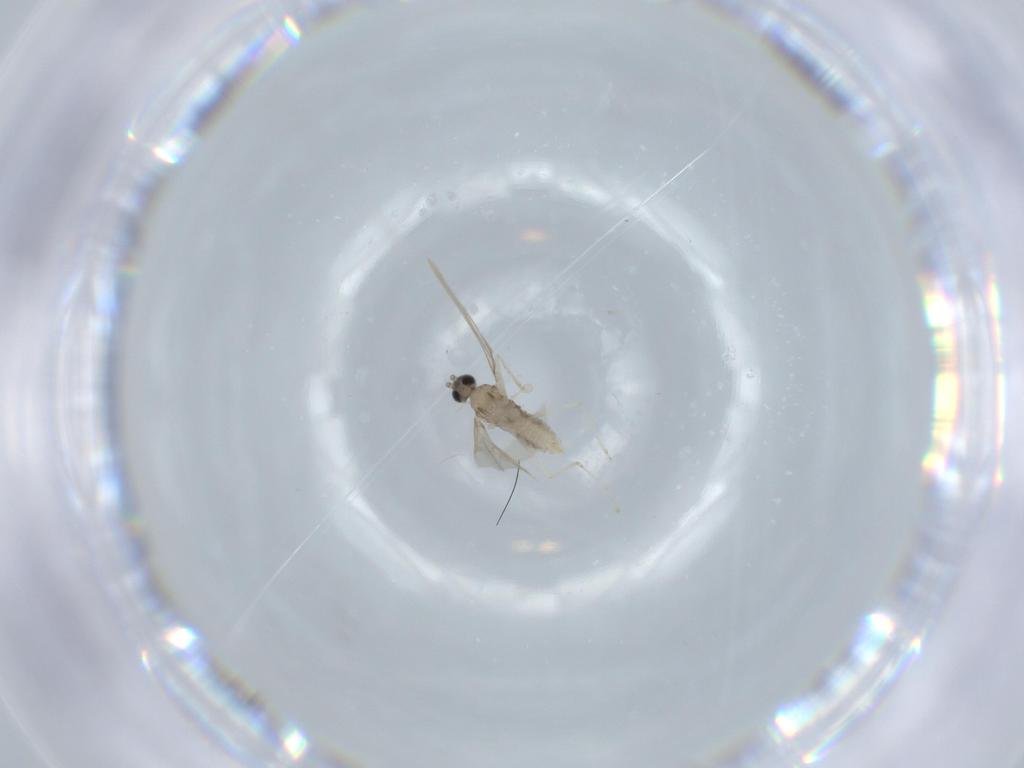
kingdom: Animalia
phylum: Arthropoda
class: Insecta
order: Diptera
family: Cecidomyiidae
